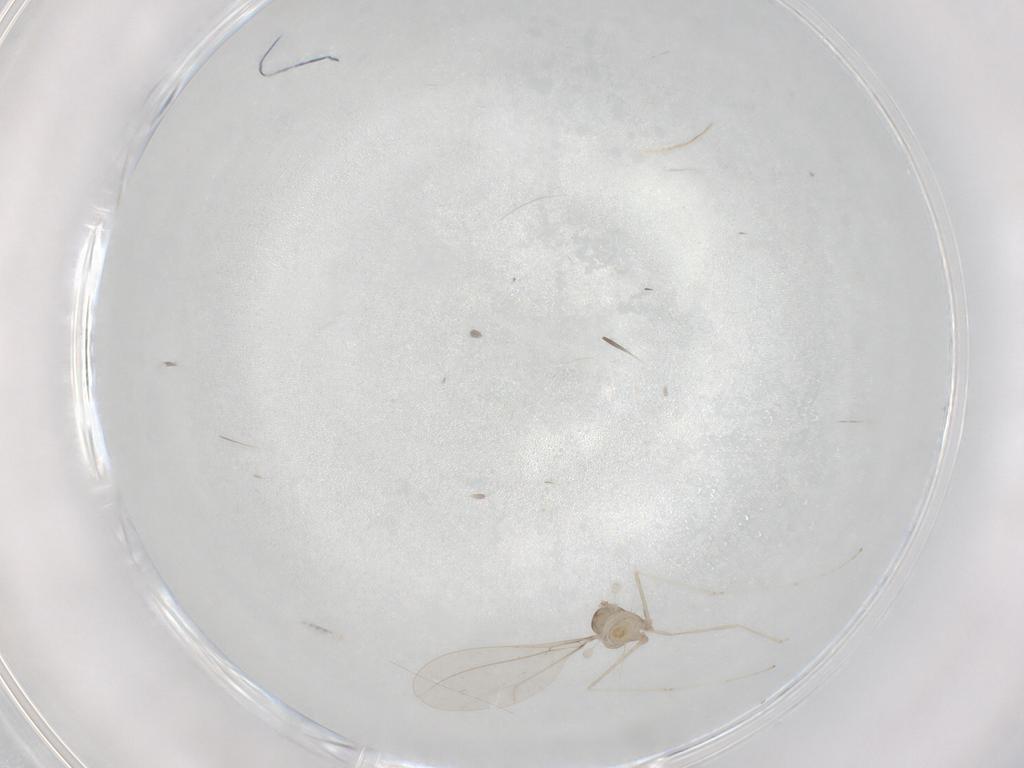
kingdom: Animalia
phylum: Arthropoda
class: Insecta
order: Diptera
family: Cecidomyiidae
